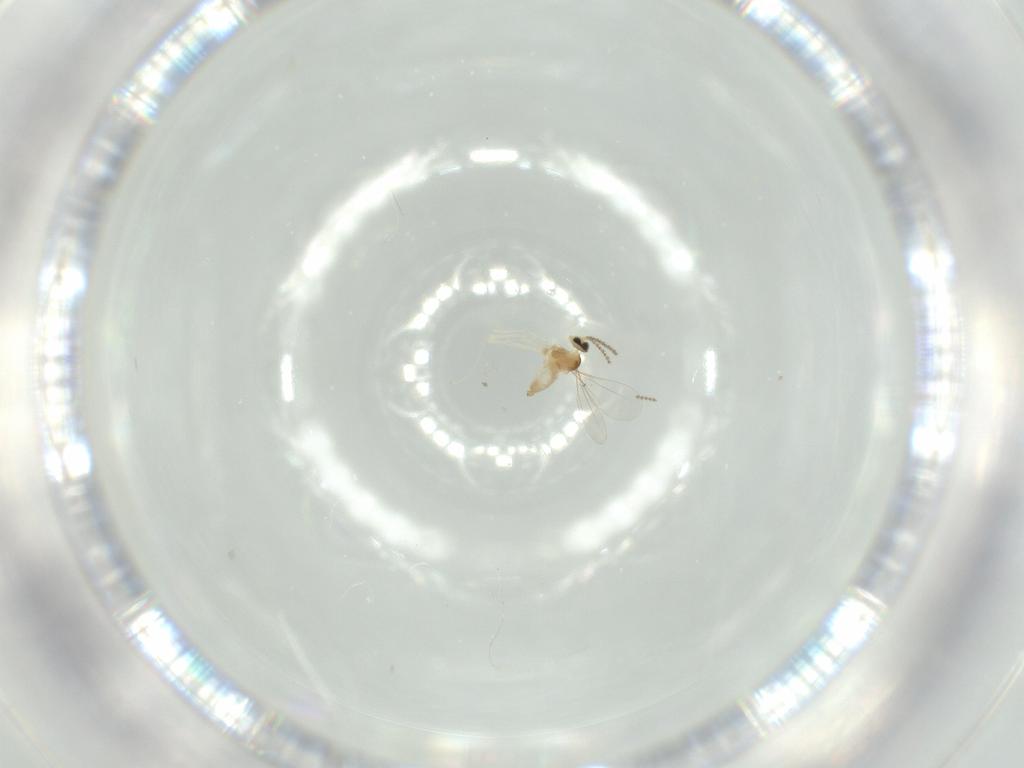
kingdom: Animalia
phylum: Arthropoda
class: Insecta
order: Diptera
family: Cecidomyiidae
